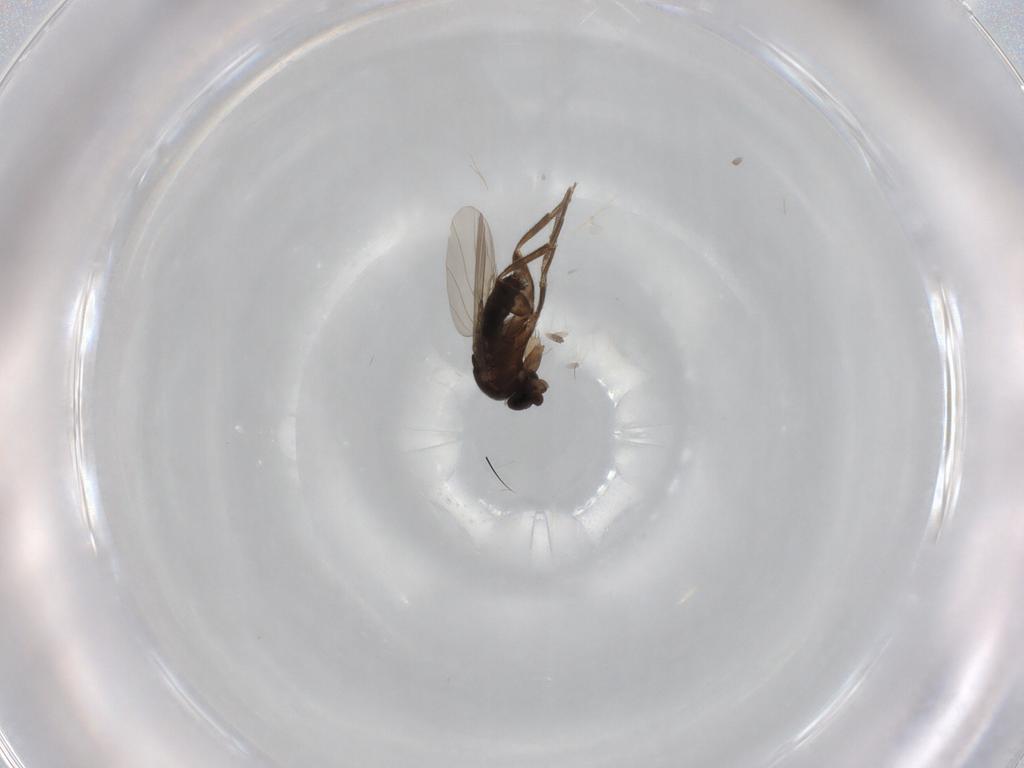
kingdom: Animalia
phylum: Arthropoda
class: Insecta
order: Diptera
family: Phoridae
